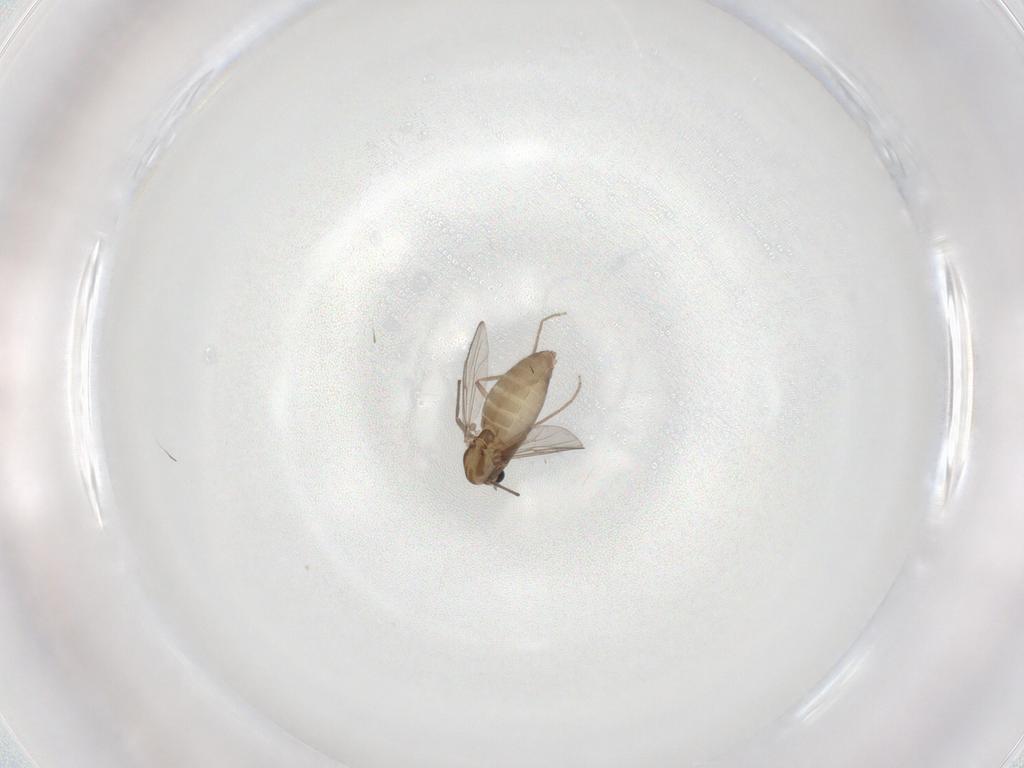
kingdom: Animalia
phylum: Arthropoda
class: Insecta
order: Diptera
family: Chironomidae
